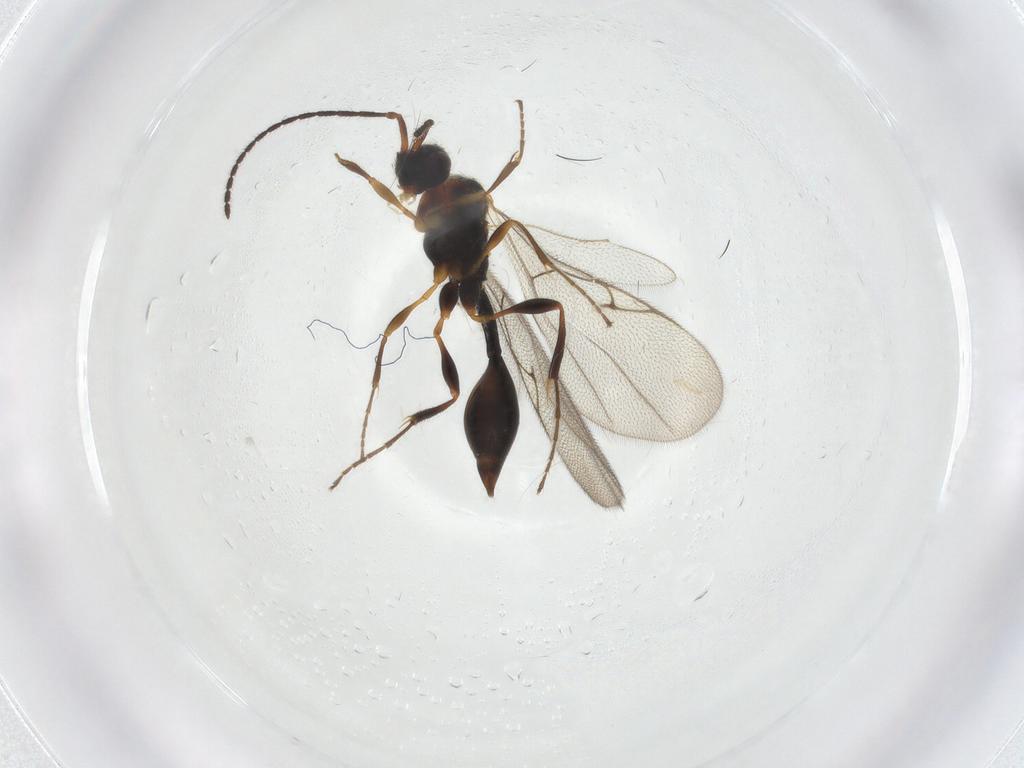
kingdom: Animalia
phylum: Arthropoda
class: Insecta
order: Hymenoptera
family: Diapriidae
